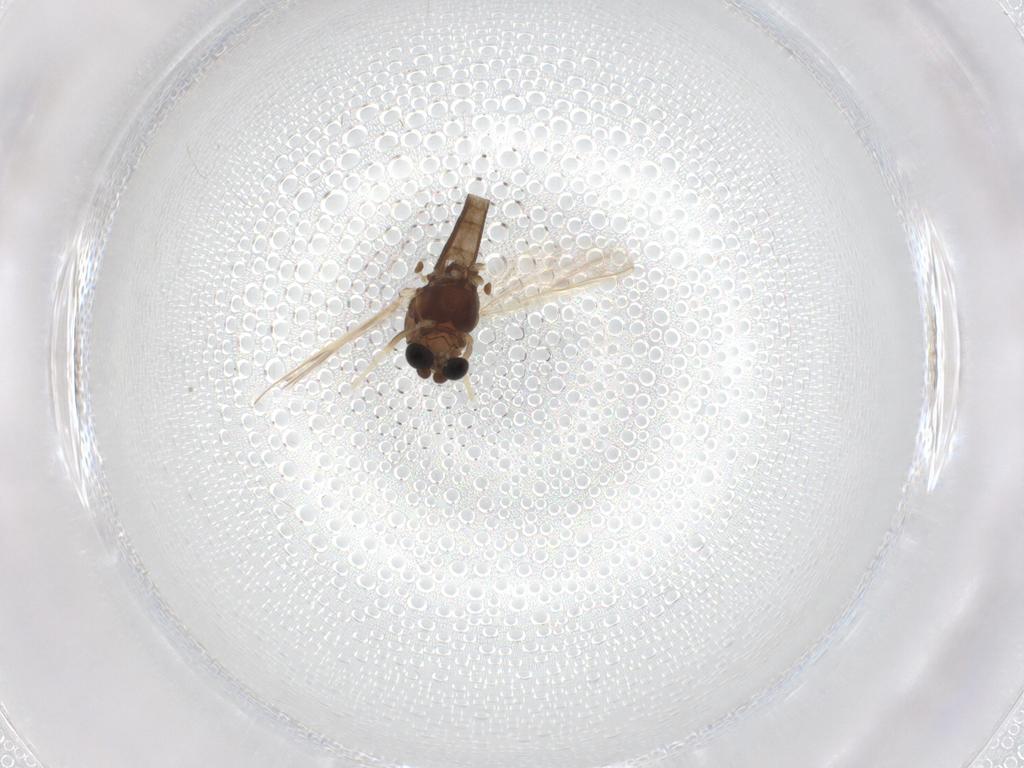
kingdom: Animalia
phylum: Arthropoda
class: Insecta
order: Diptera
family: Chironomidae
